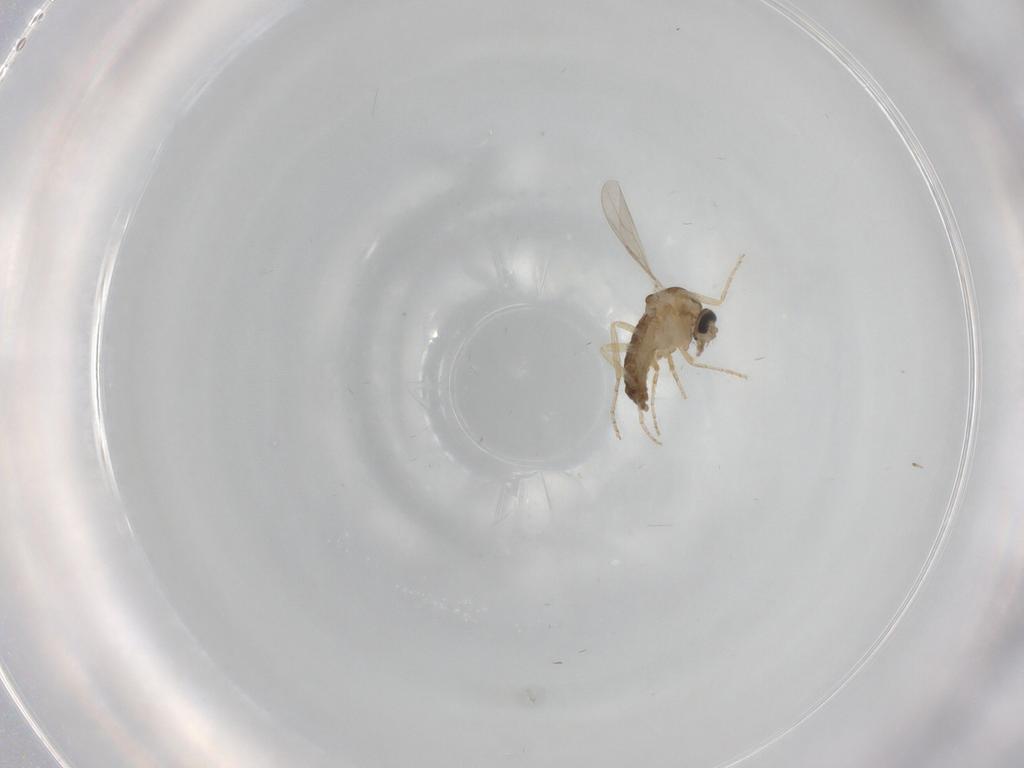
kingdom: Animalia
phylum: Arthropoda
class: Insecta
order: Diptera
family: Ceratopogonidae
